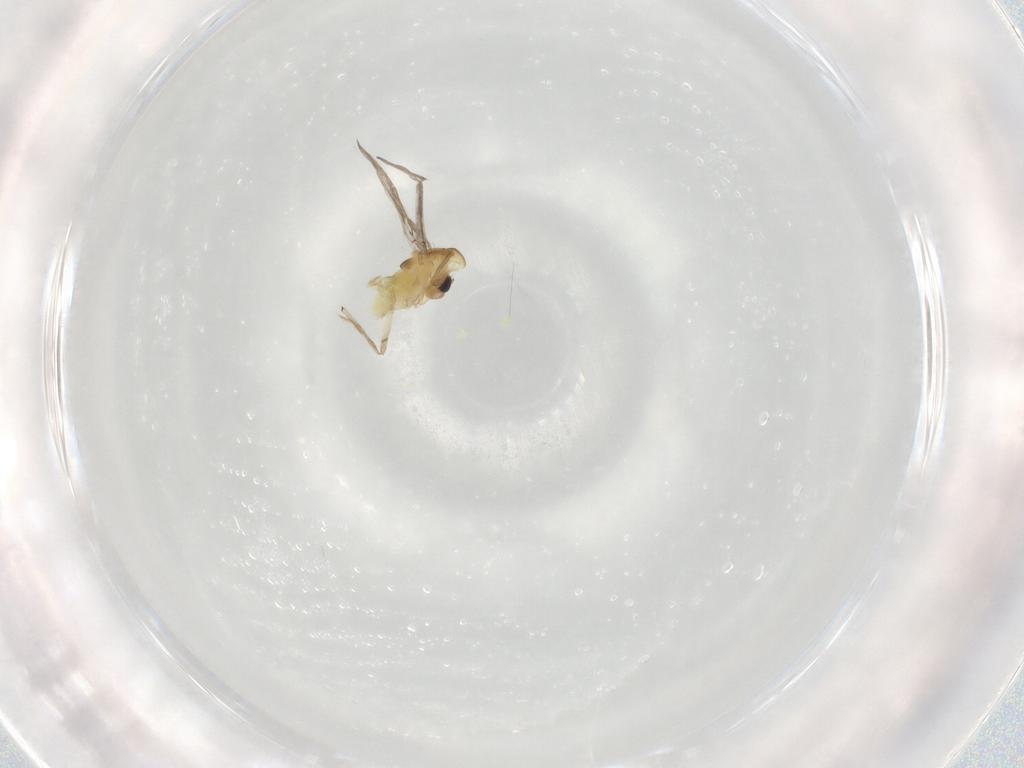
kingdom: Animalia
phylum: Arthropoda
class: Insecta
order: Diptera
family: Chironomidae
